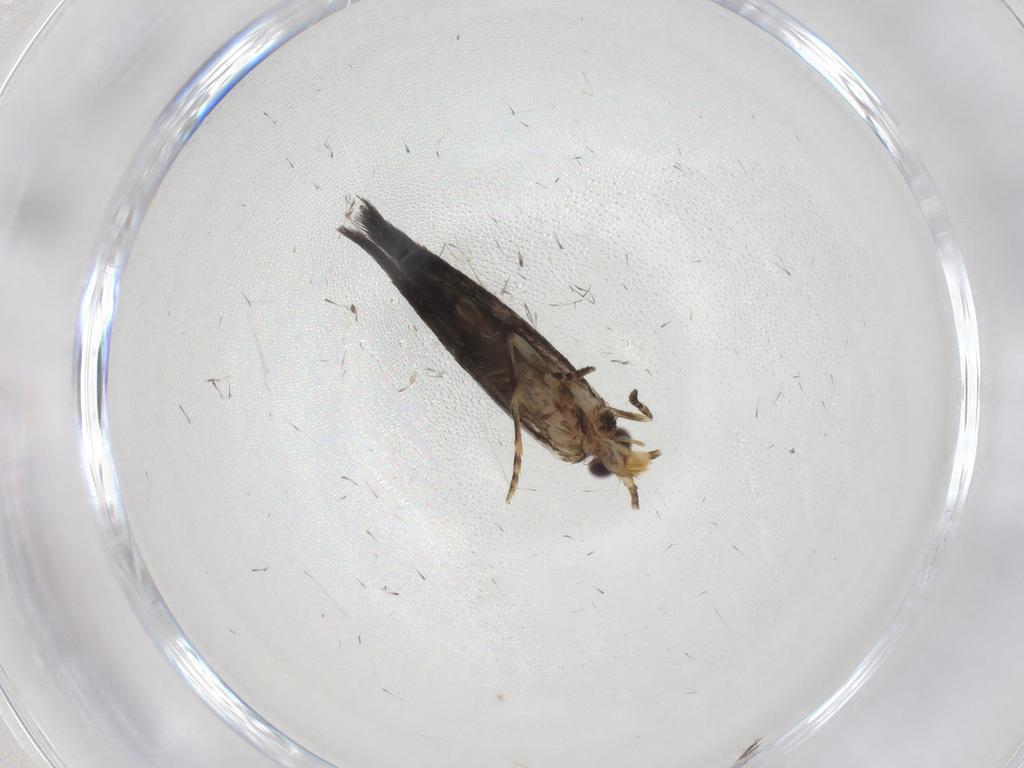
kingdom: Animalia
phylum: Arthropoda
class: Insecta
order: Lepidoptera
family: Tineidae
